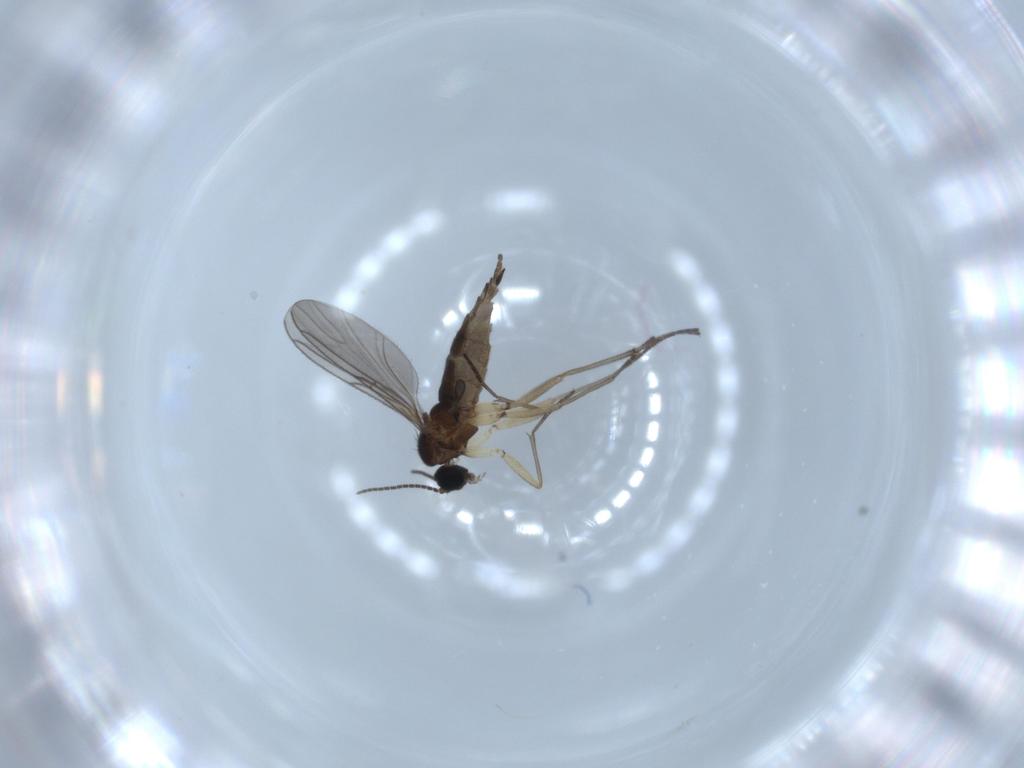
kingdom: Animalia
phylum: Arthropoda
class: Insecta
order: Diptera
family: Sciaridae
